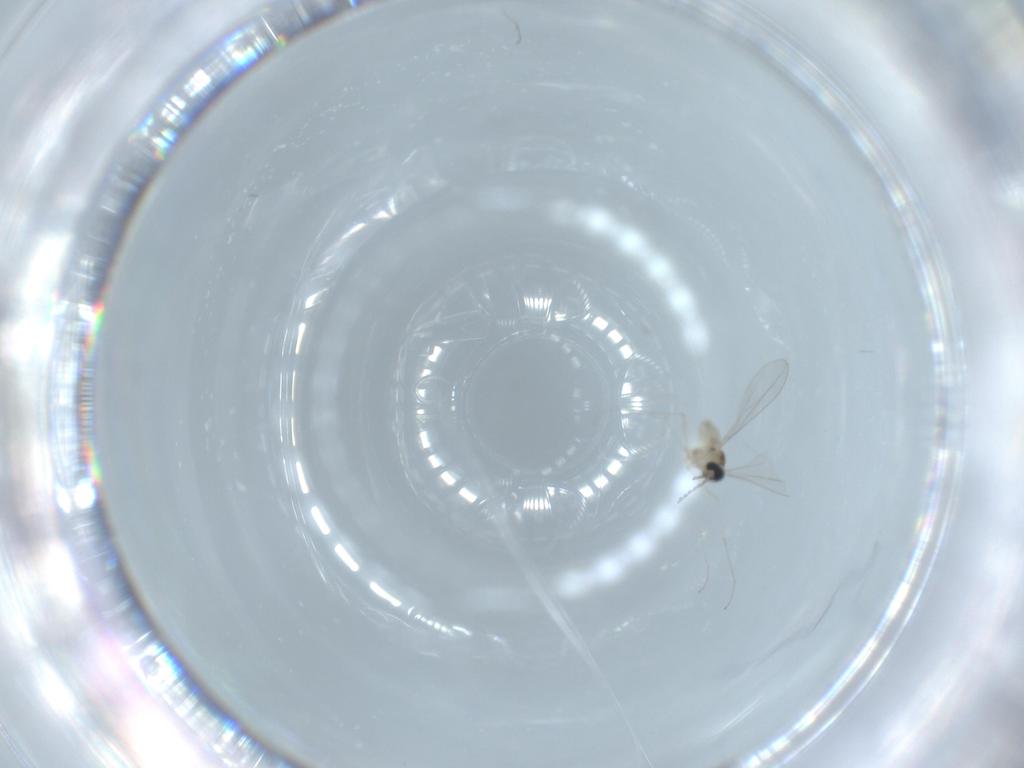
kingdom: Animalia
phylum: Arthropoda
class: Insecta
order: Diptera
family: Cecidomyiidae
